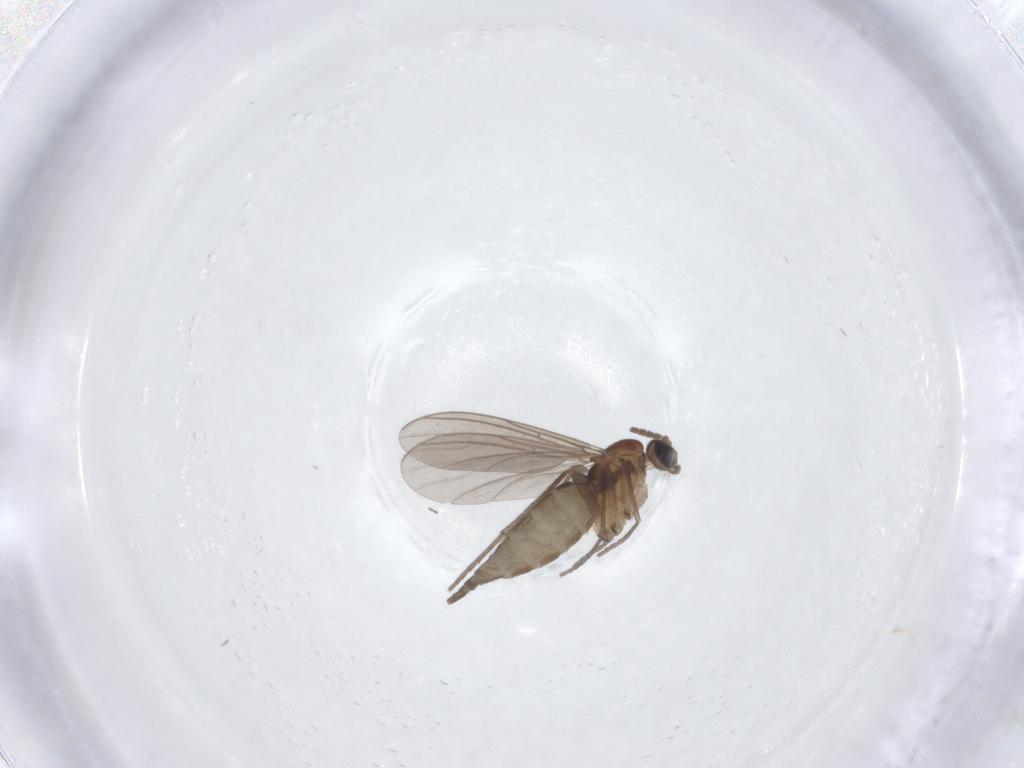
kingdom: Animalia
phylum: Arthropoda
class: Insecta
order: Diptera
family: Sciaridae
